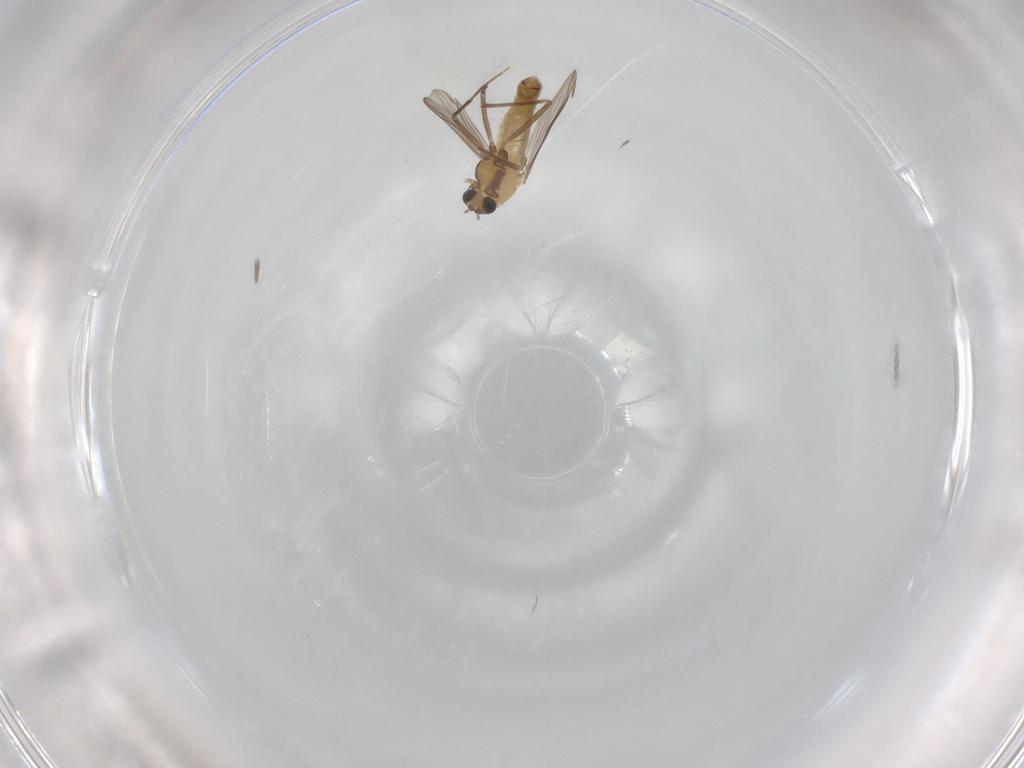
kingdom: Animalia
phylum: Arthropoda
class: Insecta
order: Diptera
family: Chironomidae
